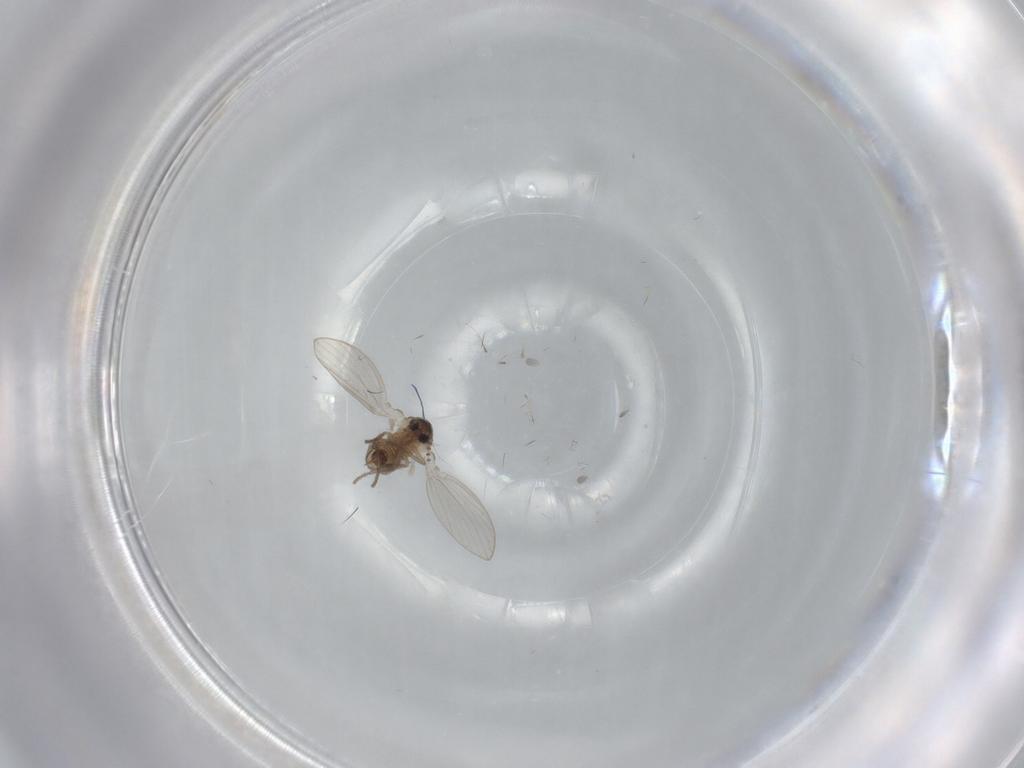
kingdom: Animalia
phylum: Arthropoda
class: Insecta
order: Diptera
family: Psychodidae
